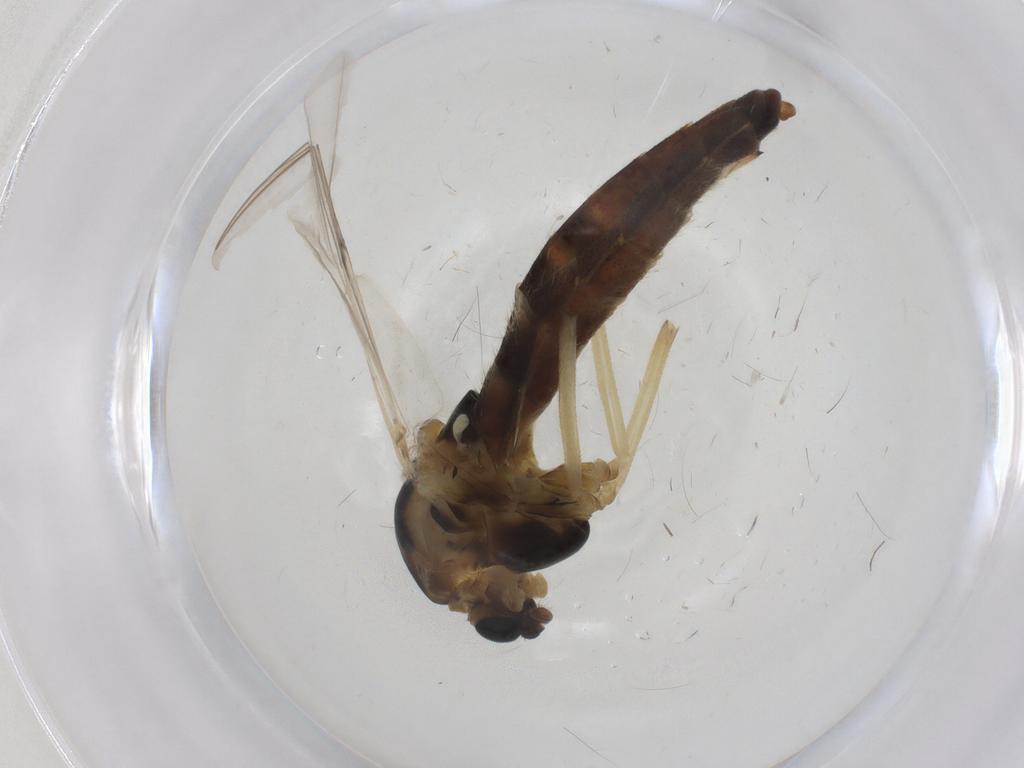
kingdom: Animalia
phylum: Arthropoda
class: Insecta
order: Diptera
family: Chironomidae
